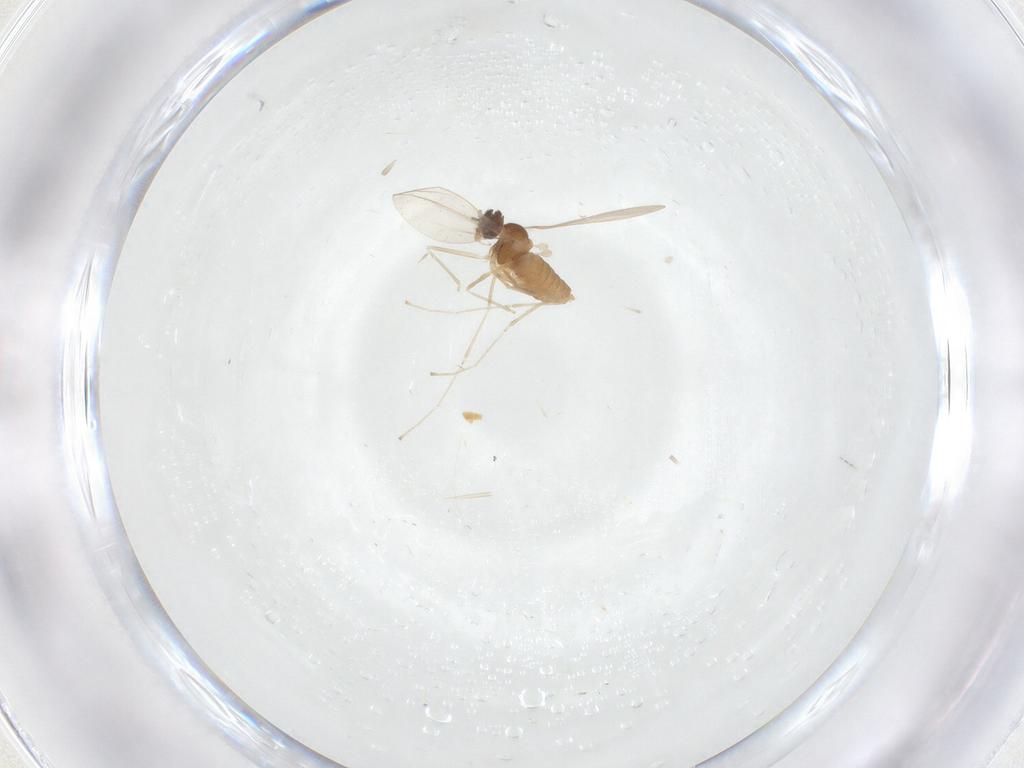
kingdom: Animalia
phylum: Arthropoda
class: Insecta
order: Diptera
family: Cecidomyiidae
